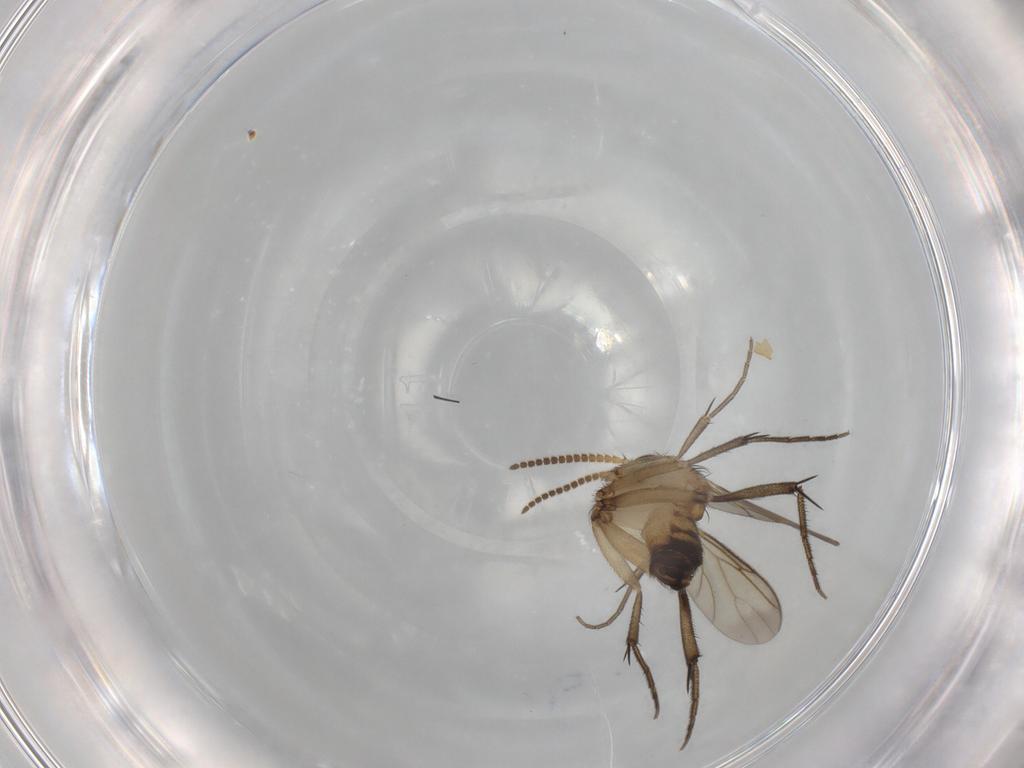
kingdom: Animalia
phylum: Arthropoda
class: Insecta
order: Diptera
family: Mycetophilidae
